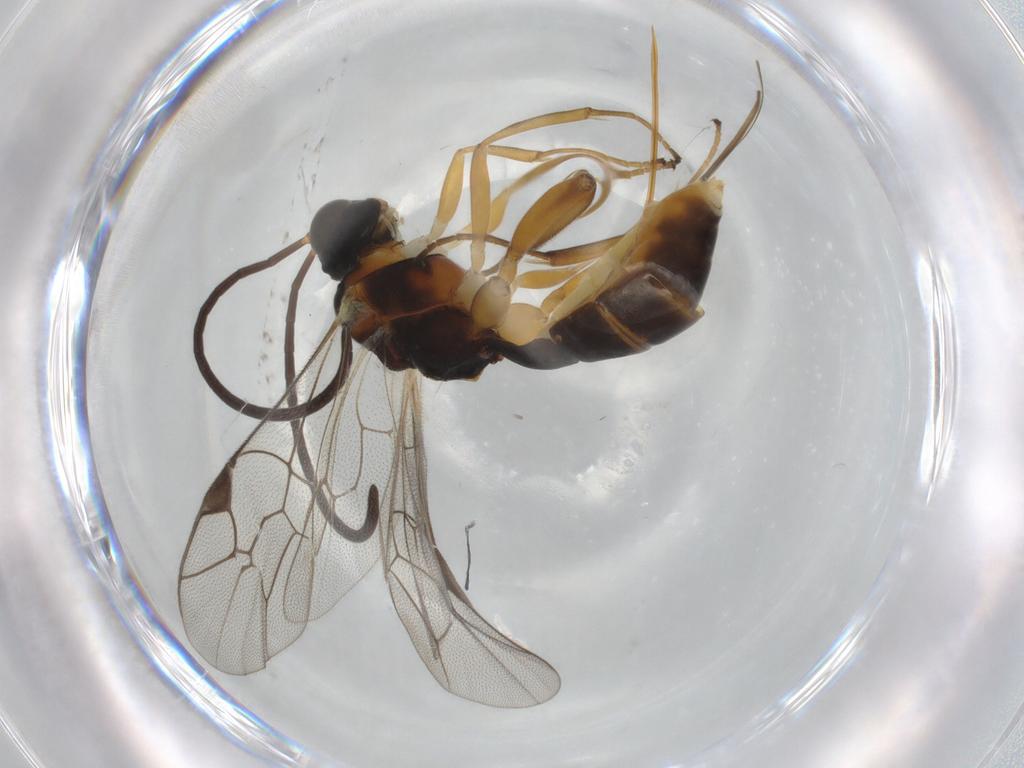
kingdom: Animalia
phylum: Arthropoda
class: Insecta
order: Hymenoptera
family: Ichneumonidae
